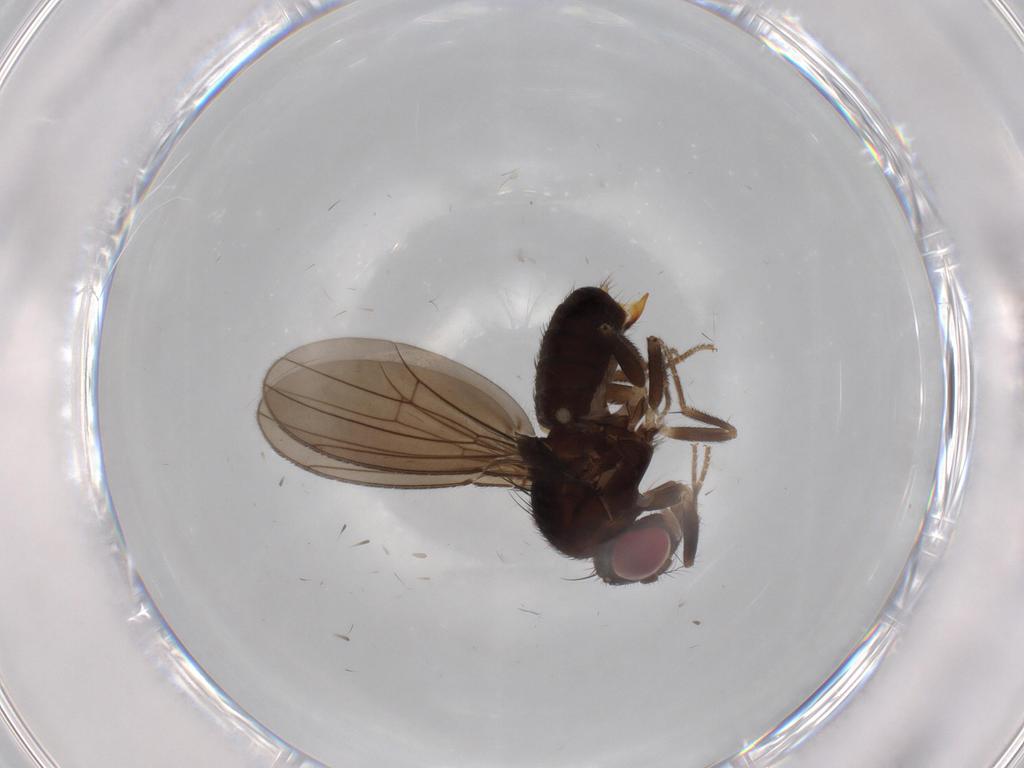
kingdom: Animalia
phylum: Arthropoda
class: Insecta
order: Diptera
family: Drosophilidae
